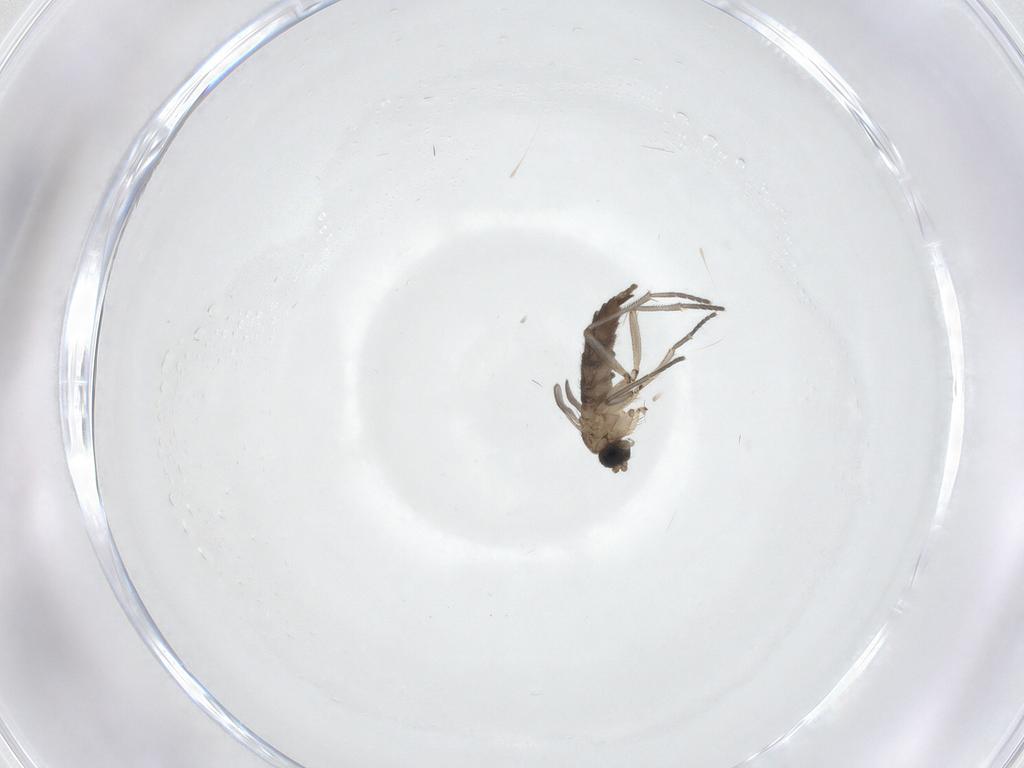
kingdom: Animalia
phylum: Arthropoda
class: Insecta
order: Diptera
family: Sciaridae
